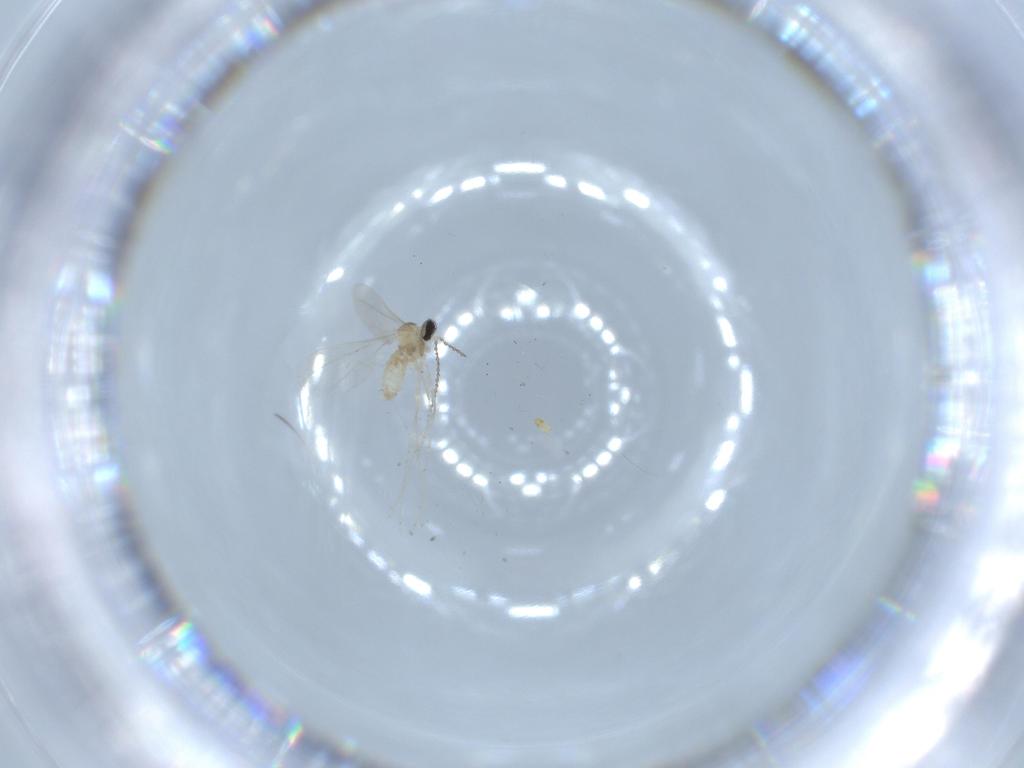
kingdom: Animalia
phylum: Arthropoda
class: Insecta
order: Diptera
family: Cecidomyiidae
